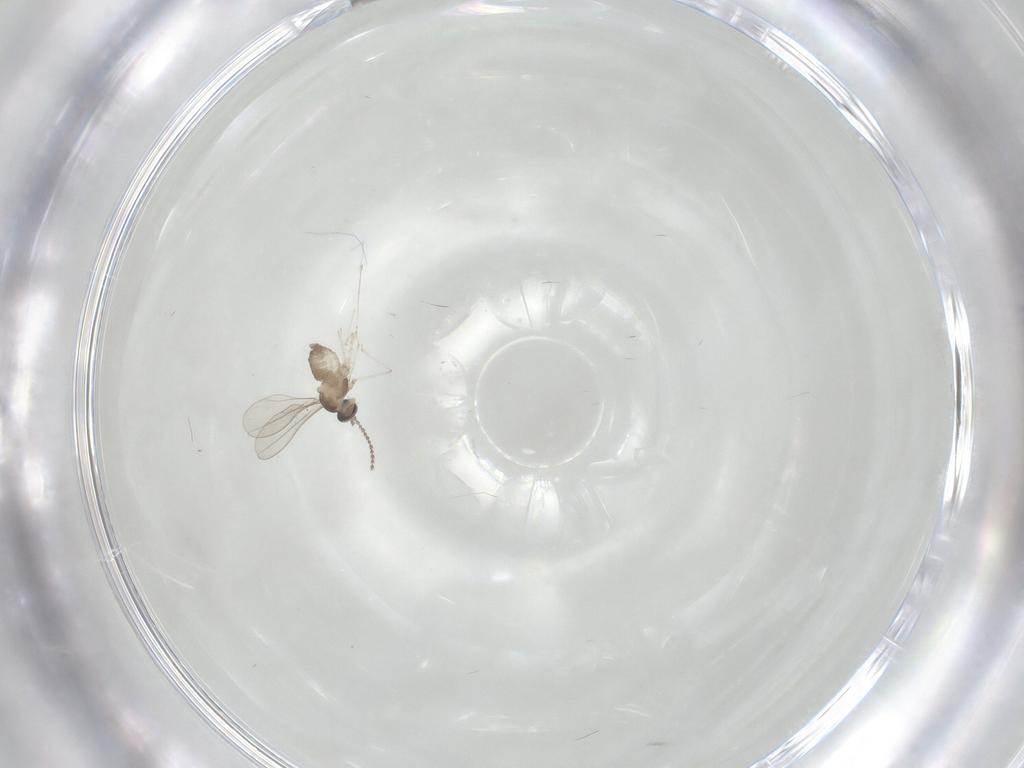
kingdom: Animalia
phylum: Arthropoda
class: Insecta
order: Diptera
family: Cecidomyiidae
